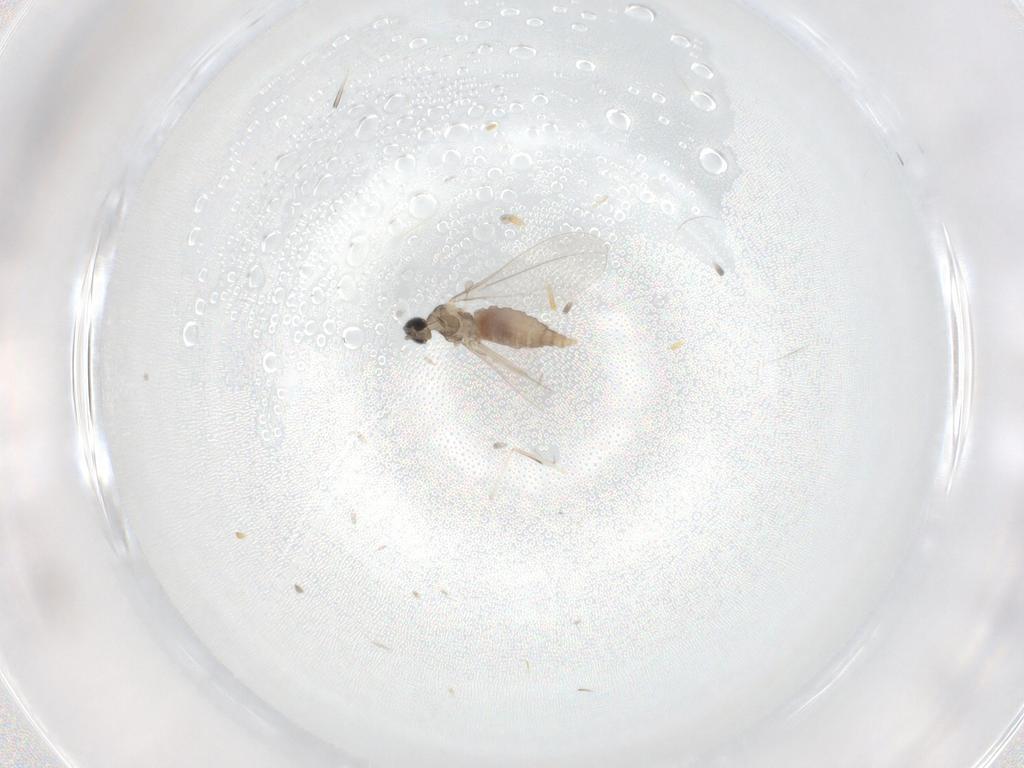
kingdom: Animalia
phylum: Arthropoda
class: Insecta
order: Diptera
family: Cecidomyiidae
